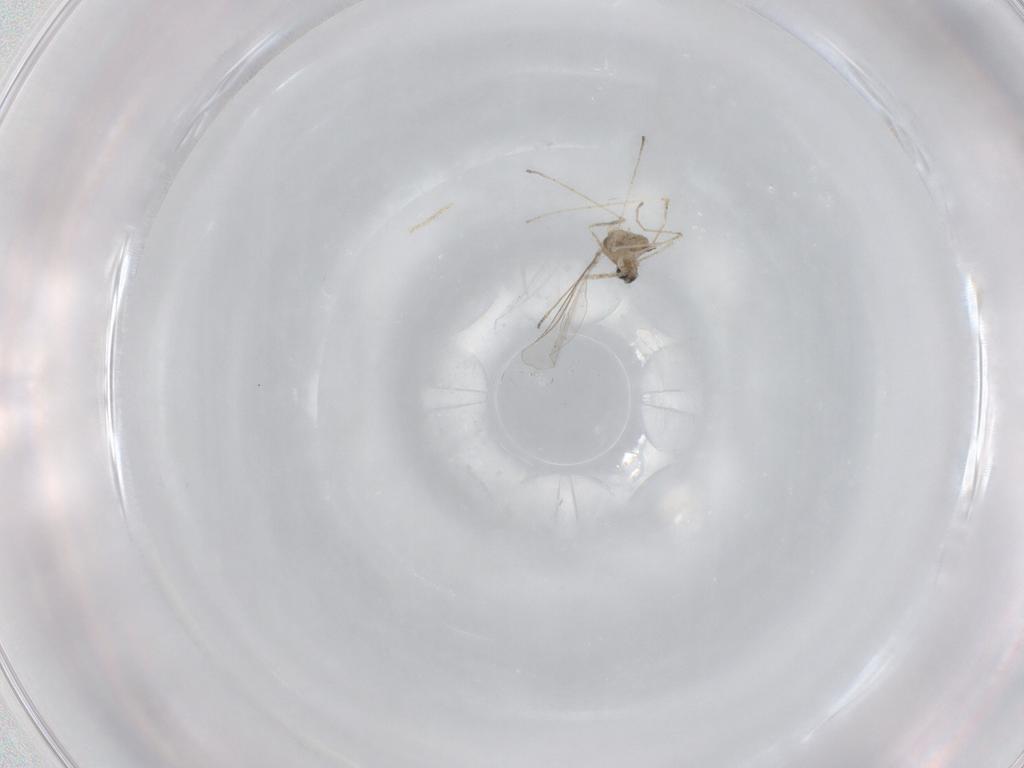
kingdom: Animalia
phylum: Arthropoda
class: Insecta
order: Diptera
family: Cecidomyiidae
